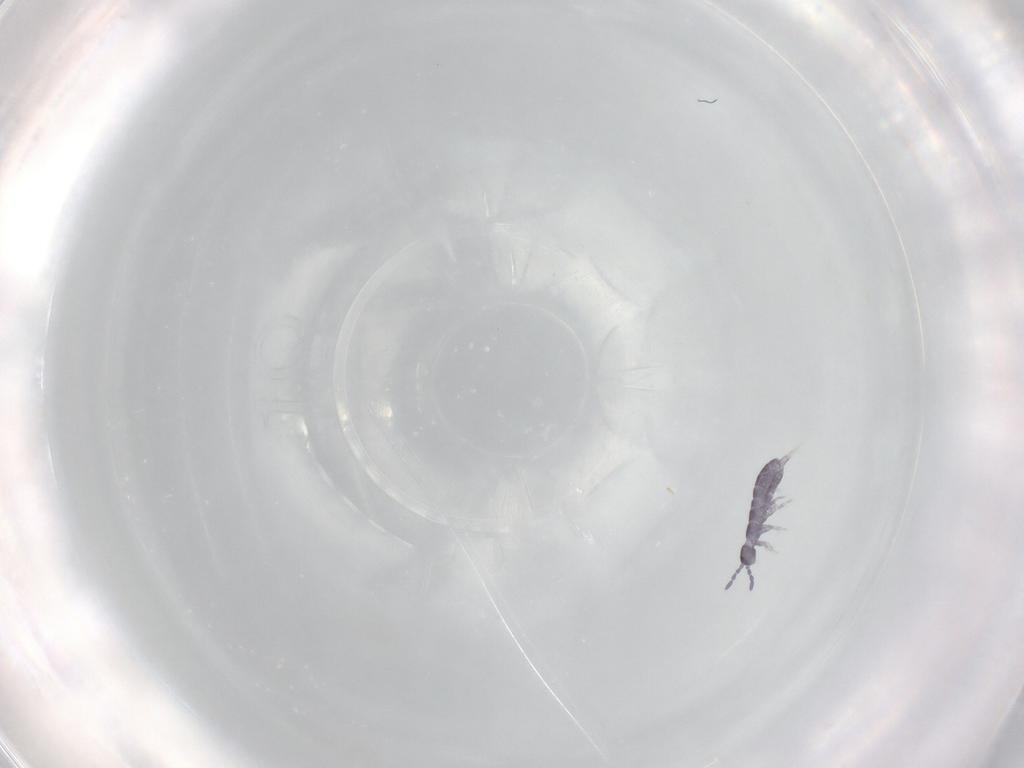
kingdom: Animalia
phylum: Arthropoda
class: Collembola
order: Entomobryomorpha
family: Isotomidae
